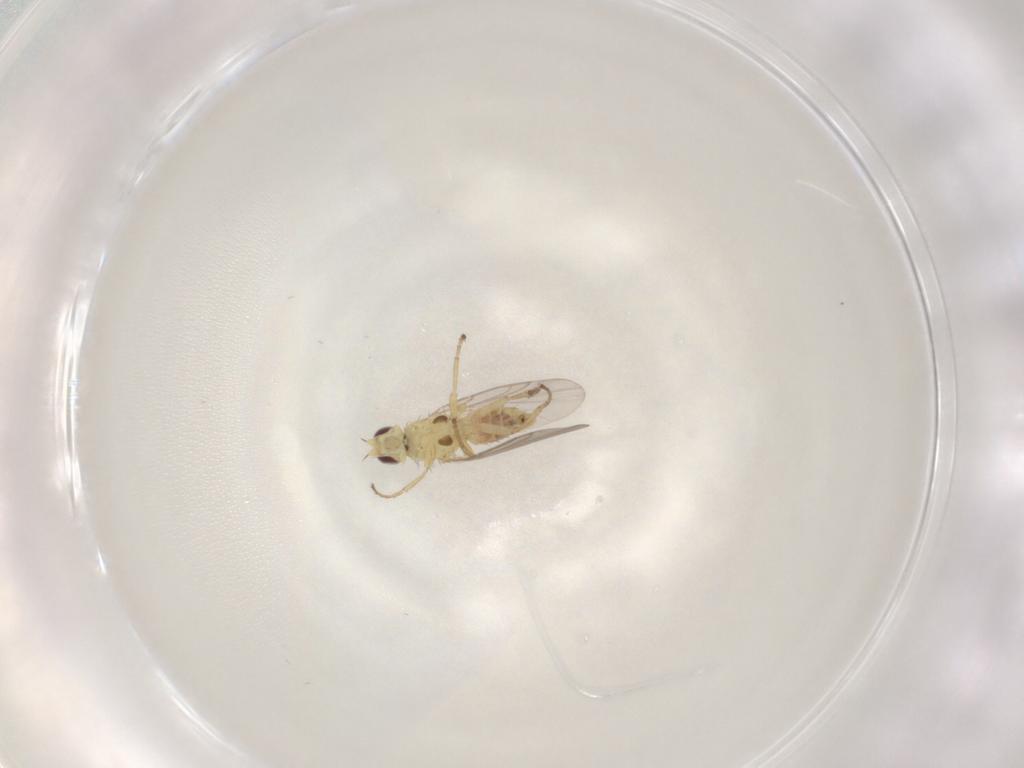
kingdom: Animalia
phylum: Arthropoda
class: Insecta
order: Diptera
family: Agromyzidae
